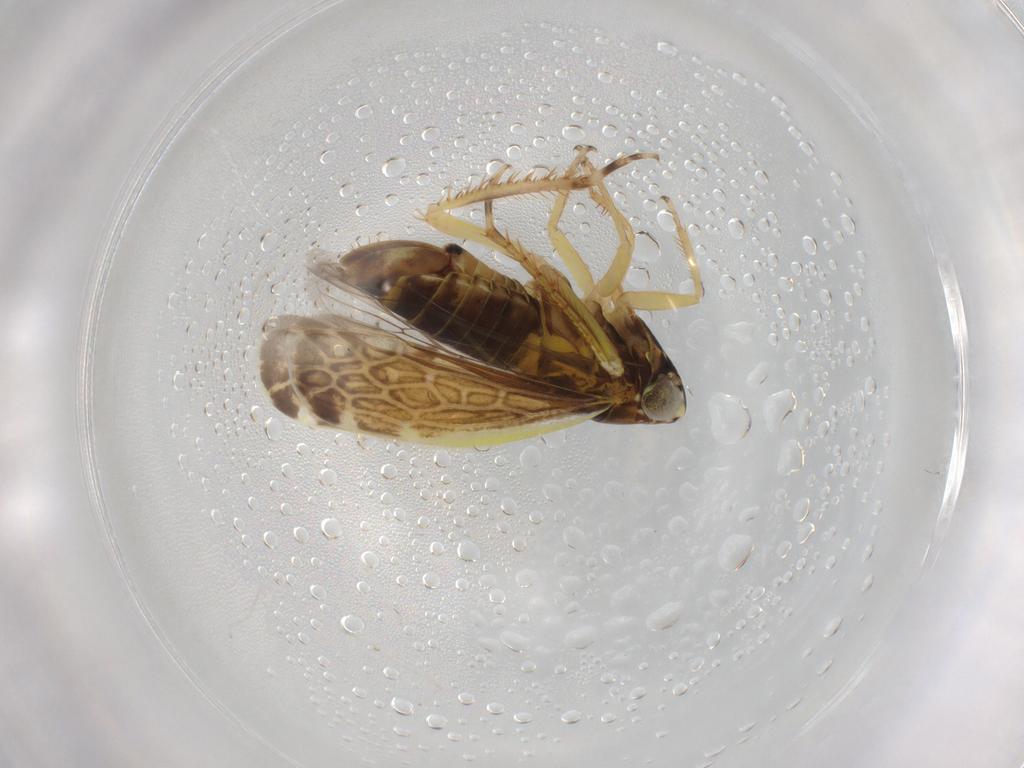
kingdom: Animalia
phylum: Arthropoda
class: Insecta
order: Hemiptera
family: Cicadellidae
